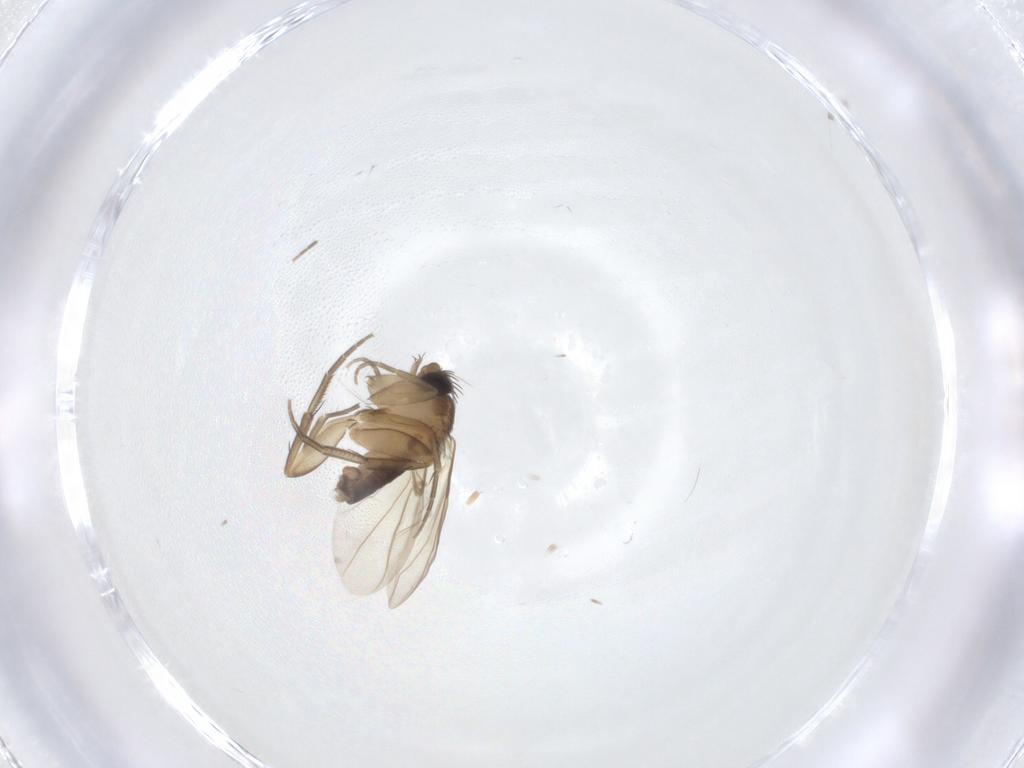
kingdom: Animalia
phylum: Arthropoda
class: Insecta
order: Diptera
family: Phoridae
